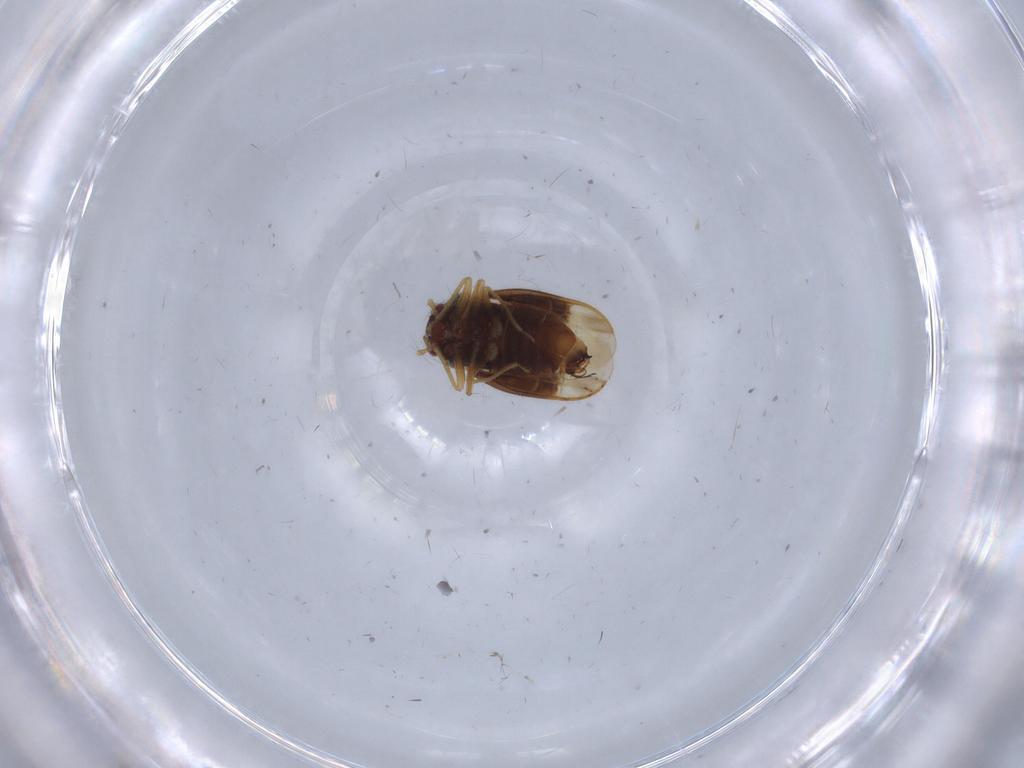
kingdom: Animalia
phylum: Arthropoda
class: Insecta
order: Hemiptera
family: Schizopteridae
